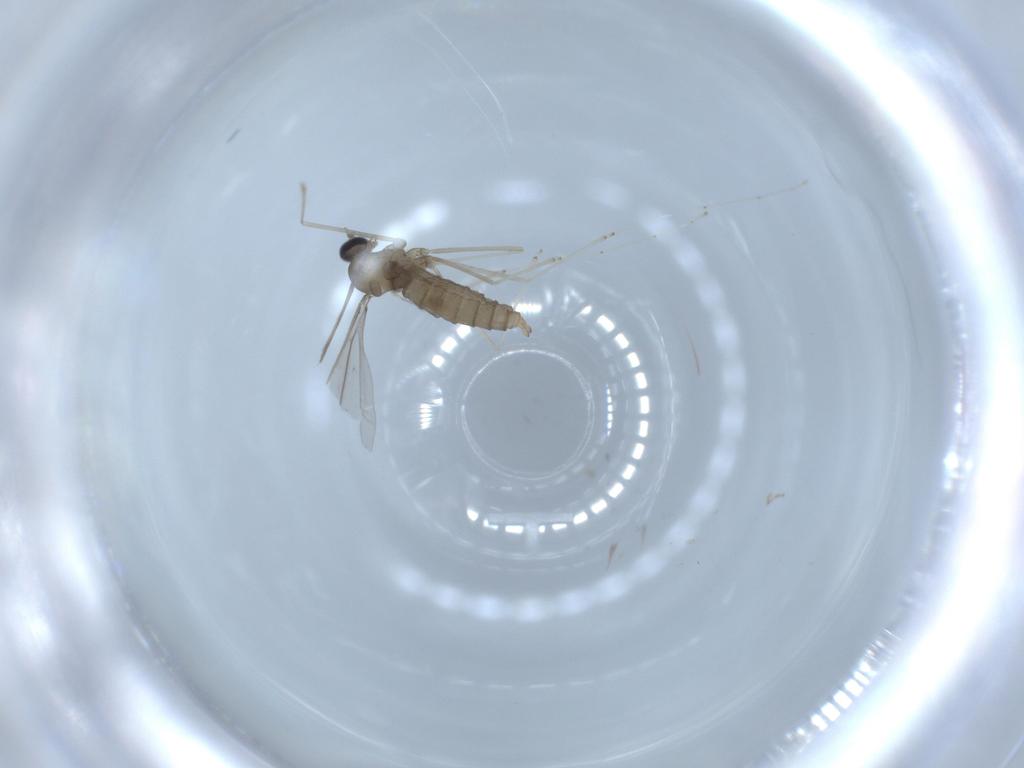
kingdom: Animalia
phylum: Arthropoda
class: Insecta
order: Diptera
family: Cecidomyiidae
